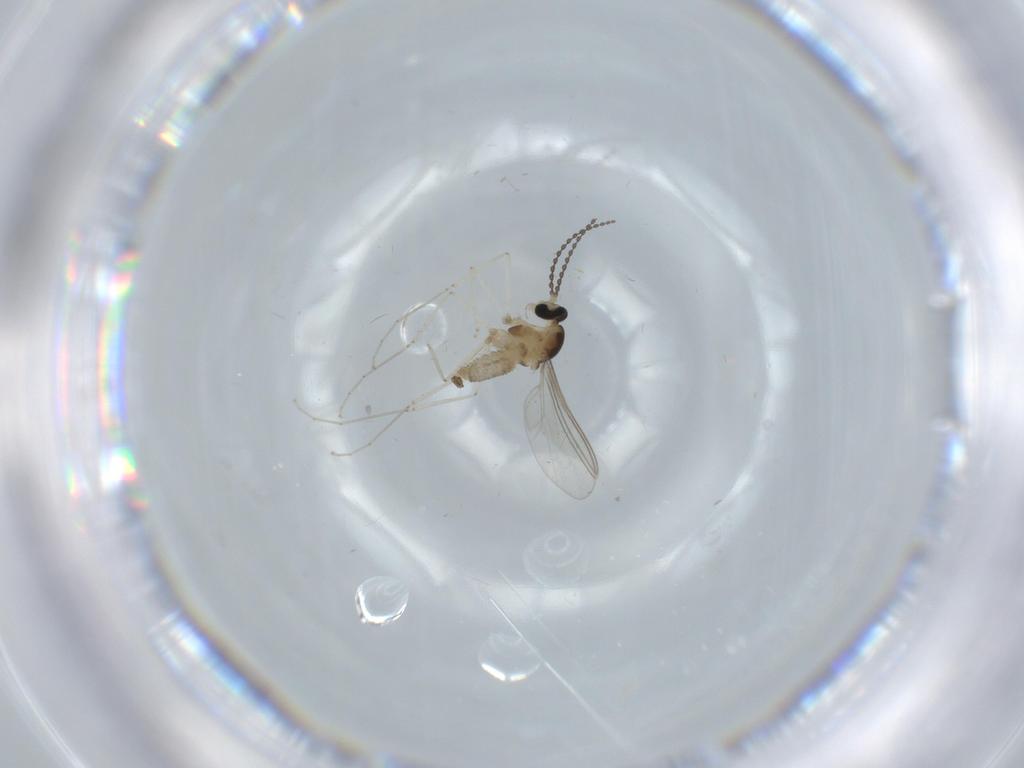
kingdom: Animalia
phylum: Arthropoda
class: Insecta
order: Diptera
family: Cecidomyiidae
